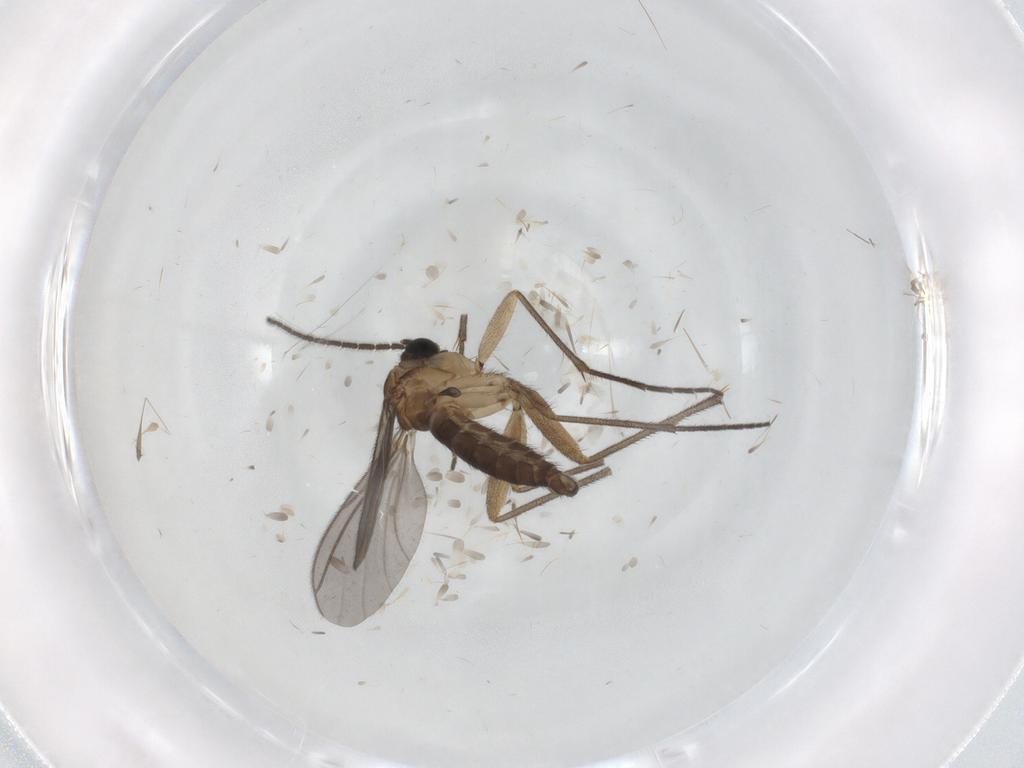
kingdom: Animalia
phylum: Arthropoda
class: Insecta
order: Diptera
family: Sciaridae
